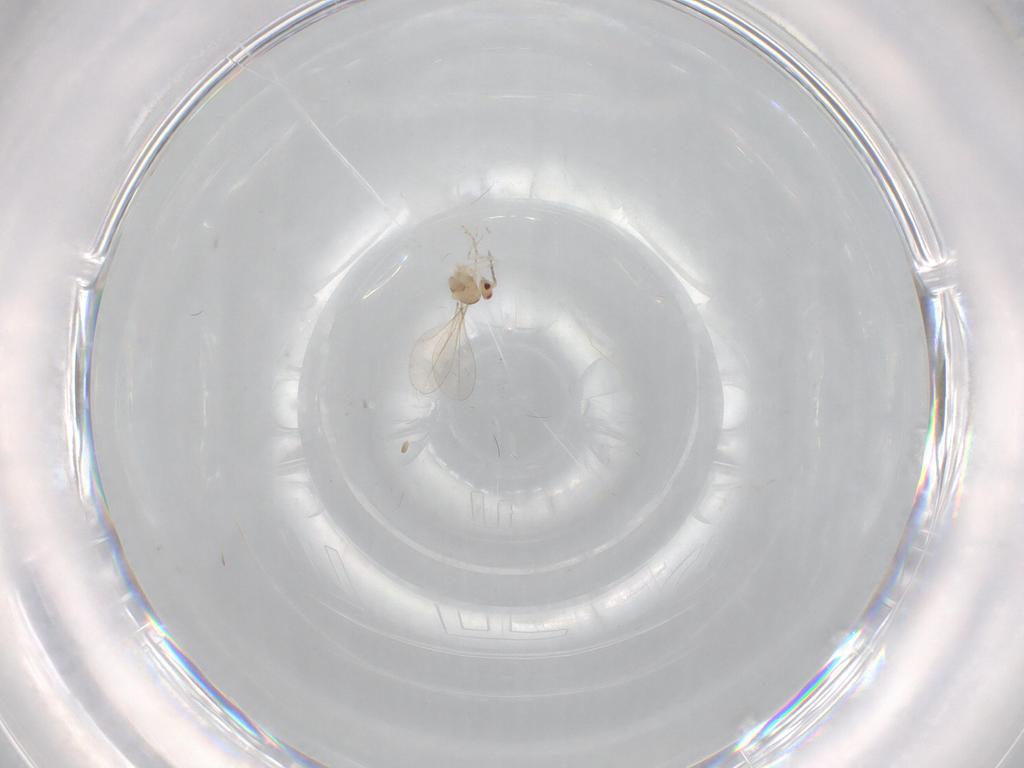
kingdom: Animalia
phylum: Arthropoda
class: Insecta
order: Diptera
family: Cecidomyiidae
